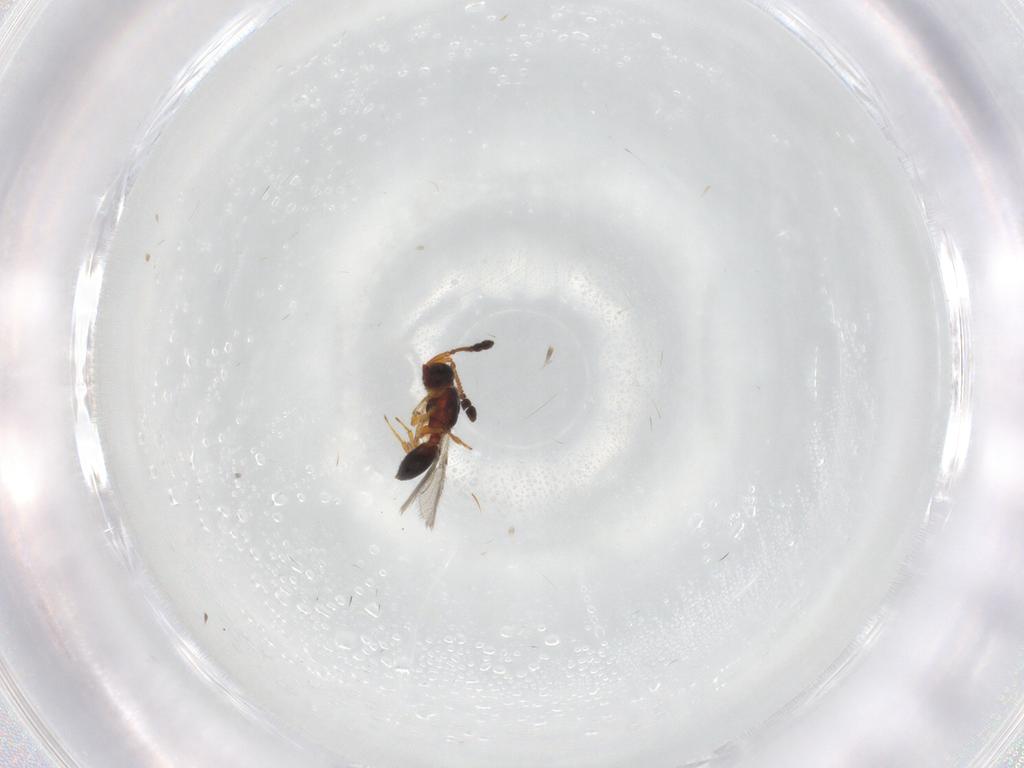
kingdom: Animalia
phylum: Arthropoda
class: Insecta
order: Hymenoptera
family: Diapriidae
